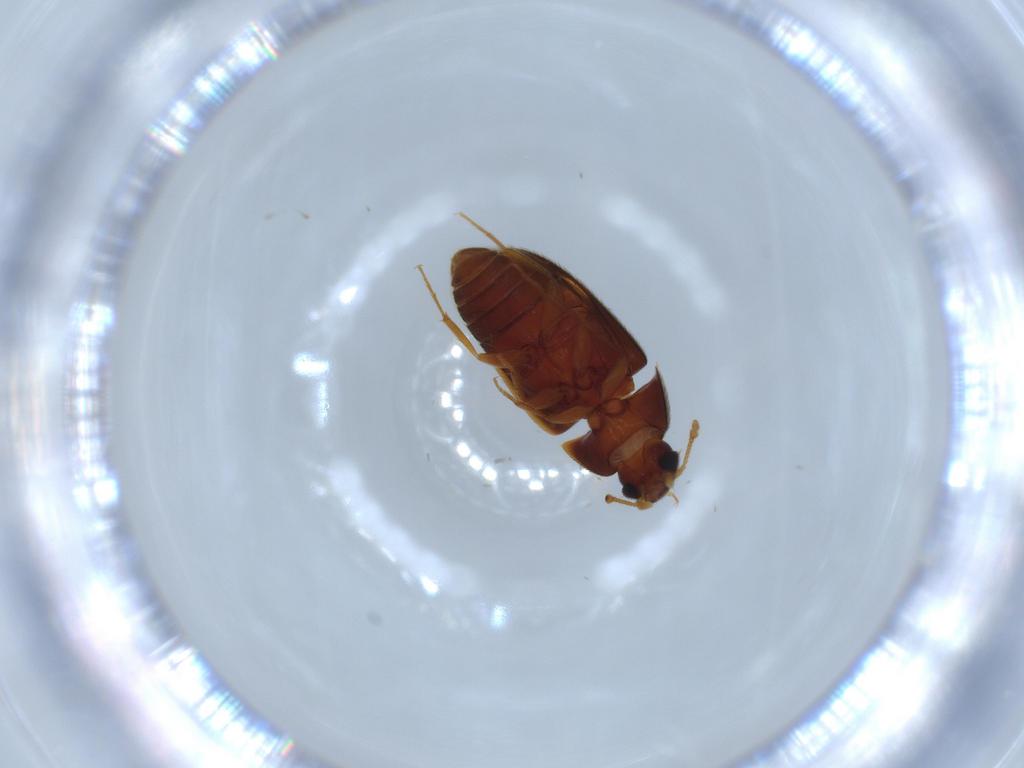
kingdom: Animalia
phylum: Arthropoda
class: Insecta
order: Coleoptera
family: Mycetophagidae
